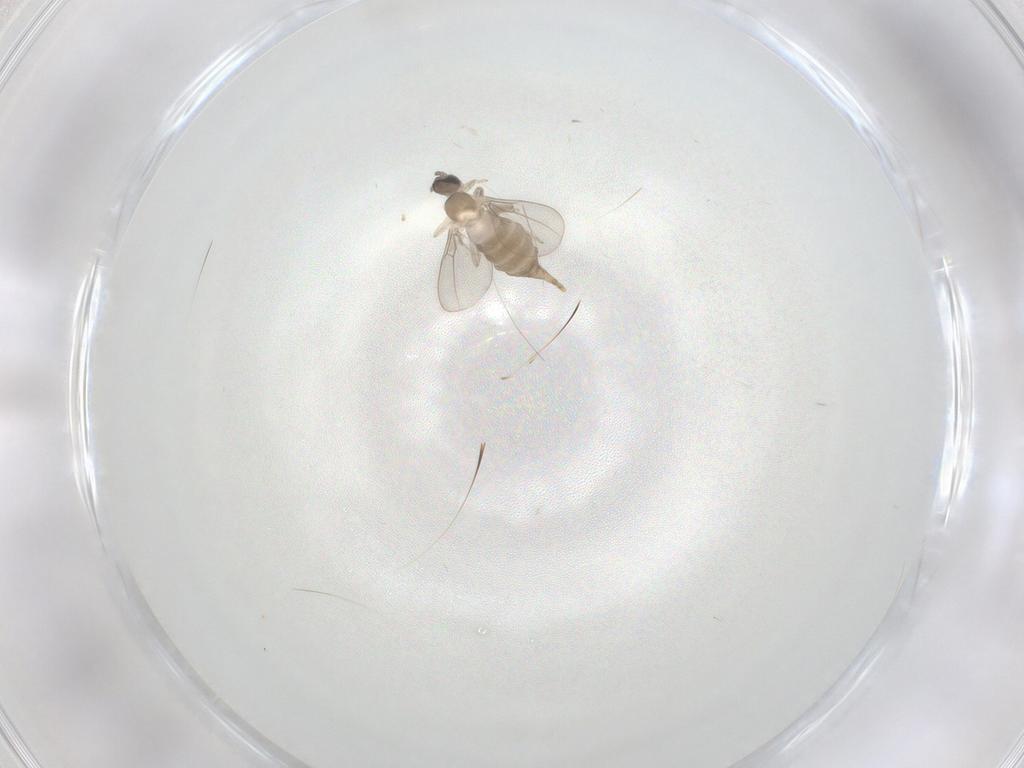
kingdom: Animalia
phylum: Arthropoda
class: Insecta
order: Diptera
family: Cecidomyiidae
